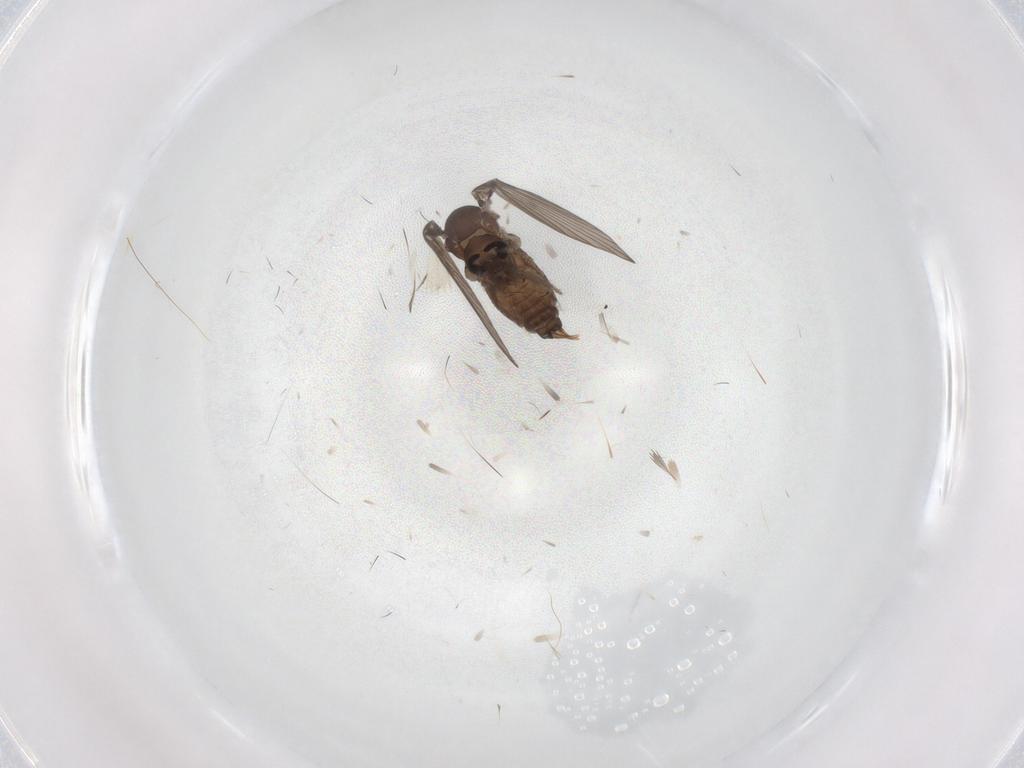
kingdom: Animalia
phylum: Arthropoda
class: Insecta
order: Diptera
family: Psychodidae
